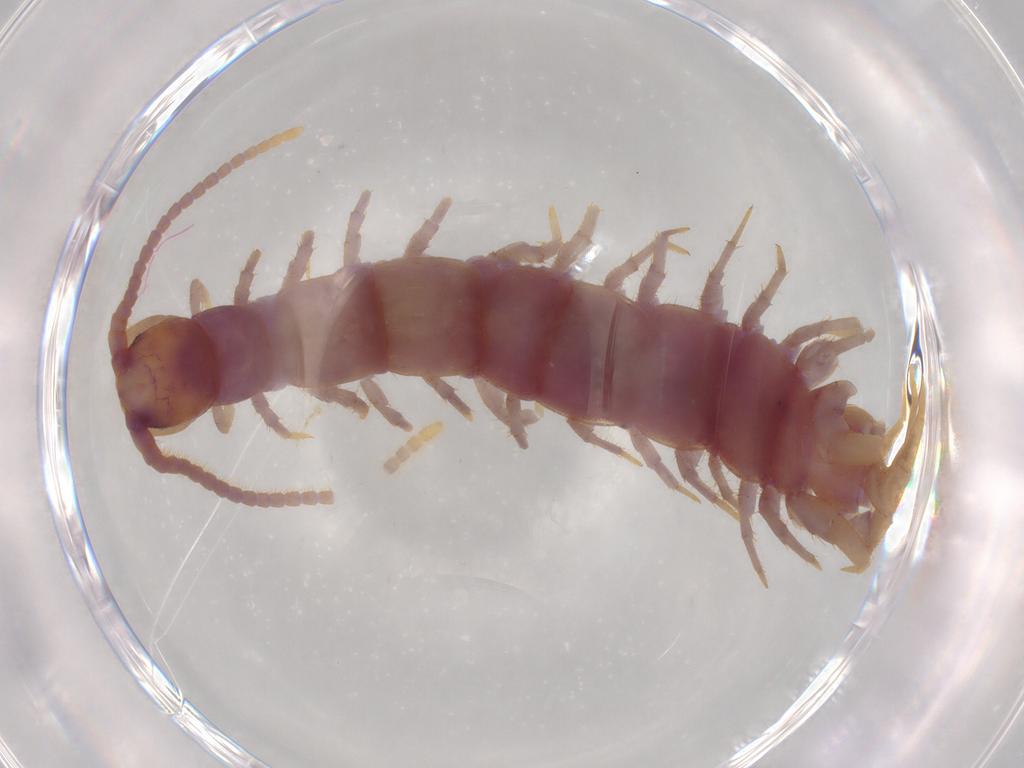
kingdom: Animalia
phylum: Arthropoda
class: Chilopoda
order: Lithobiomorpha
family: Lithobiidae
